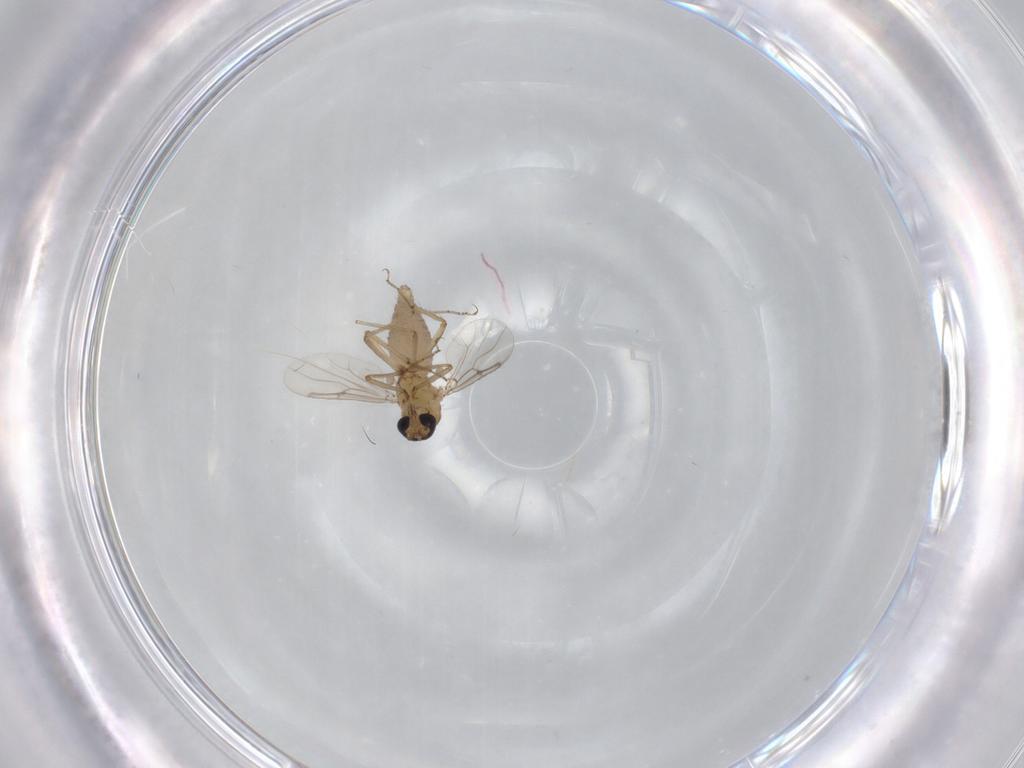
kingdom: Animalia
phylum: Arthropoda
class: Insecta
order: Diptera
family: Ceratopogonidae
